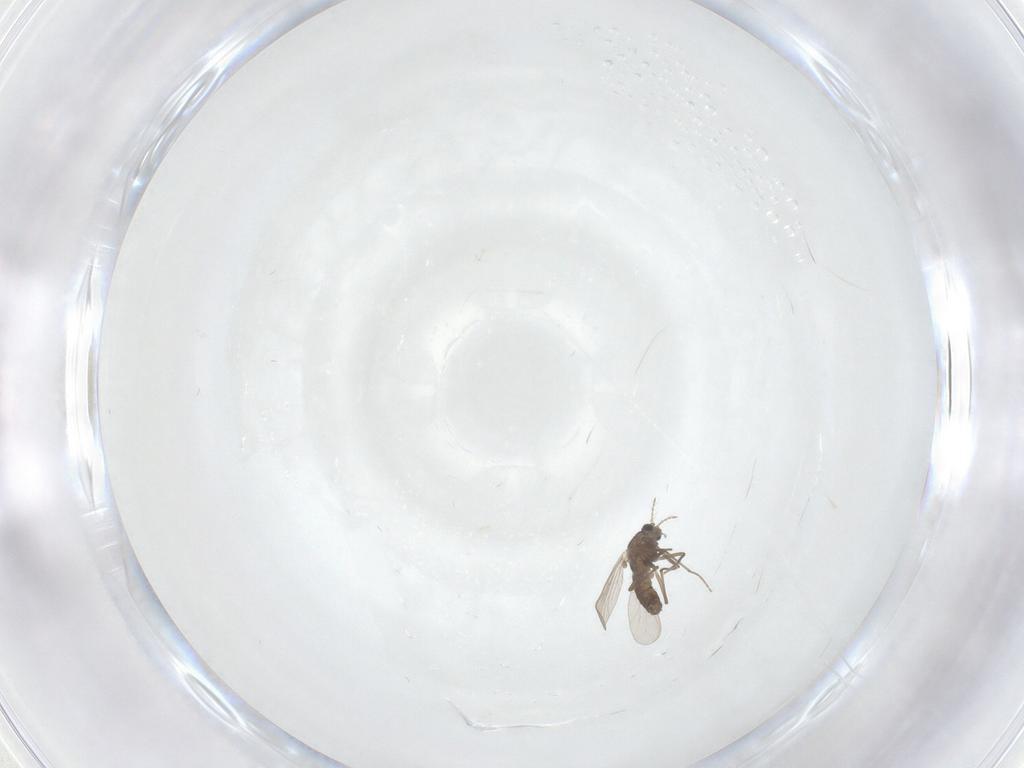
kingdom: Animalia
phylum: Arthropoda
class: Insecta
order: Diptera
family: Chironomidae
